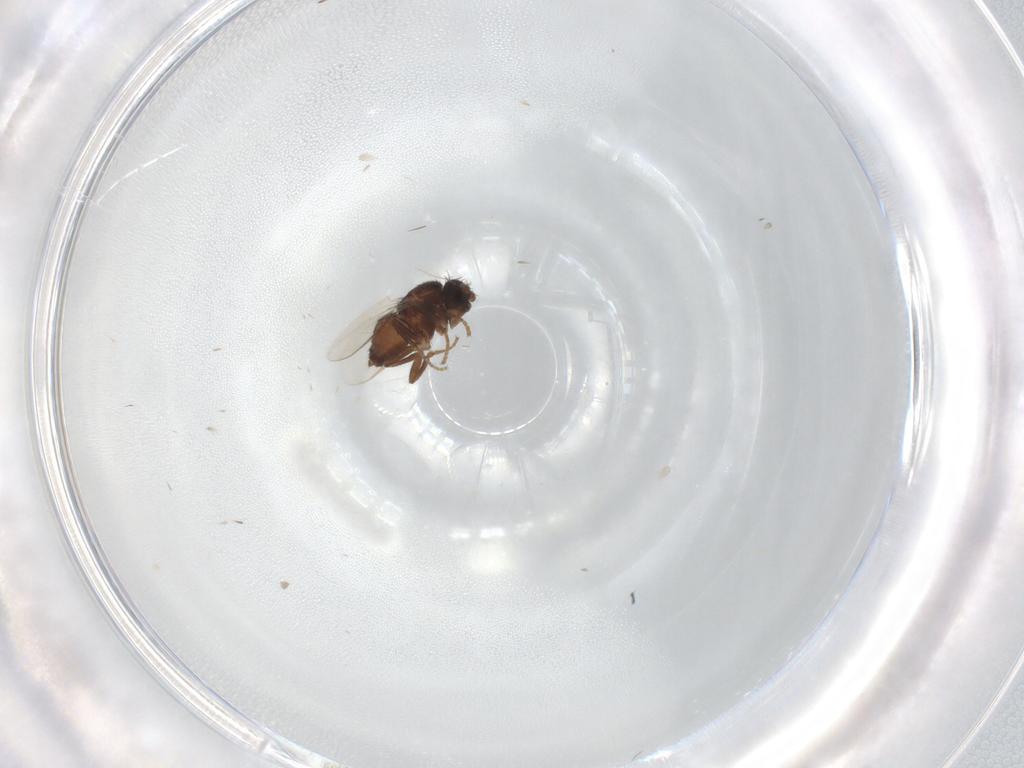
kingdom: Animalia
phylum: Arthropoda
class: Insecta
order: Diptera
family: Sphaeroceridae
